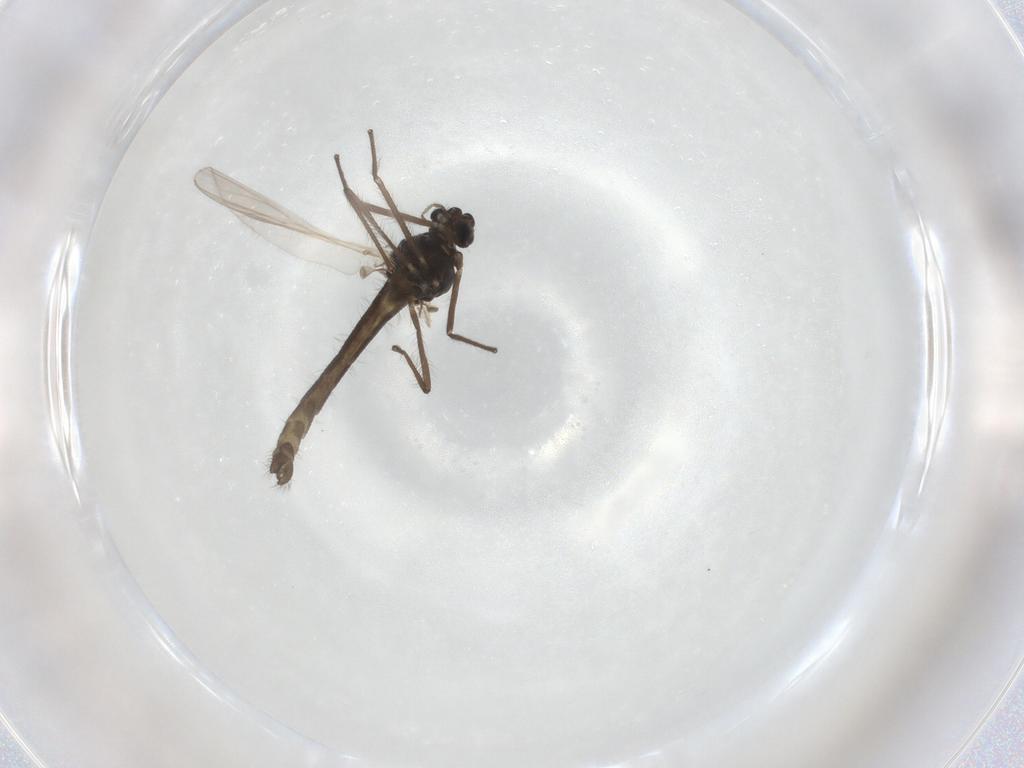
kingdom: Animalia
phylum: Arthropoda
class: Insecta
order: Diptera
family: Chironomidae
